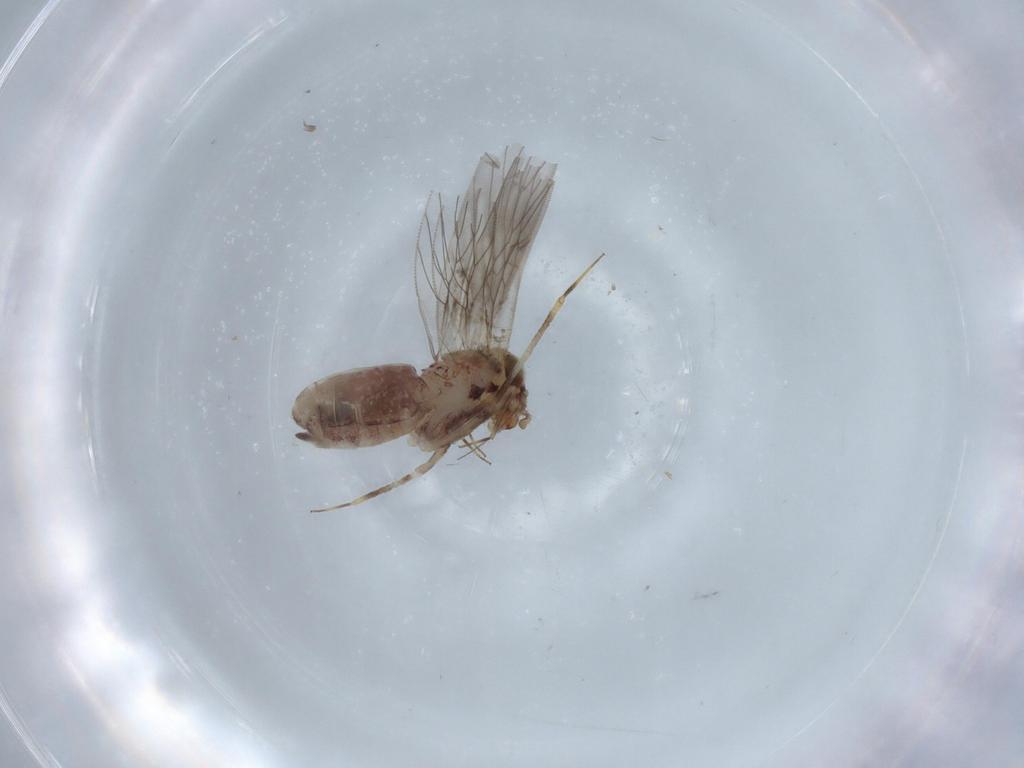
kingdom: Animalia
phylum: Arthropoda
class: Insecta
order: Psocodea
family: Lepidopsocidae
